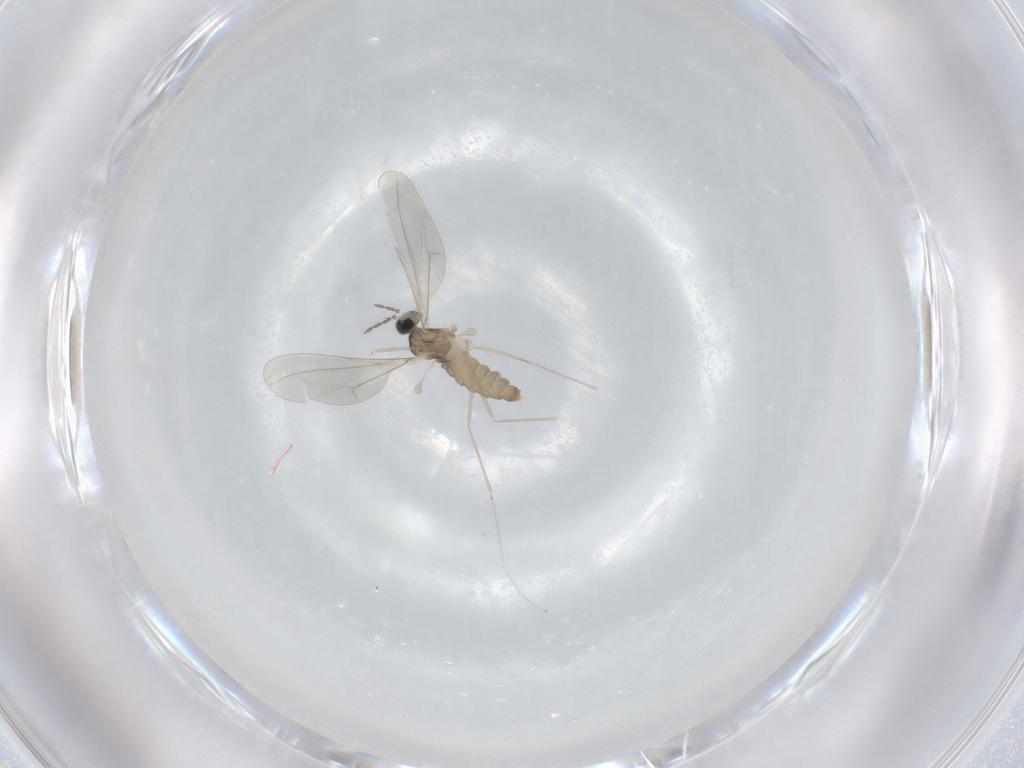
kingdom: Animalia
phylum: Arthropoda
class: Insecta
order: Diptera
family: Cecidomyiidae
